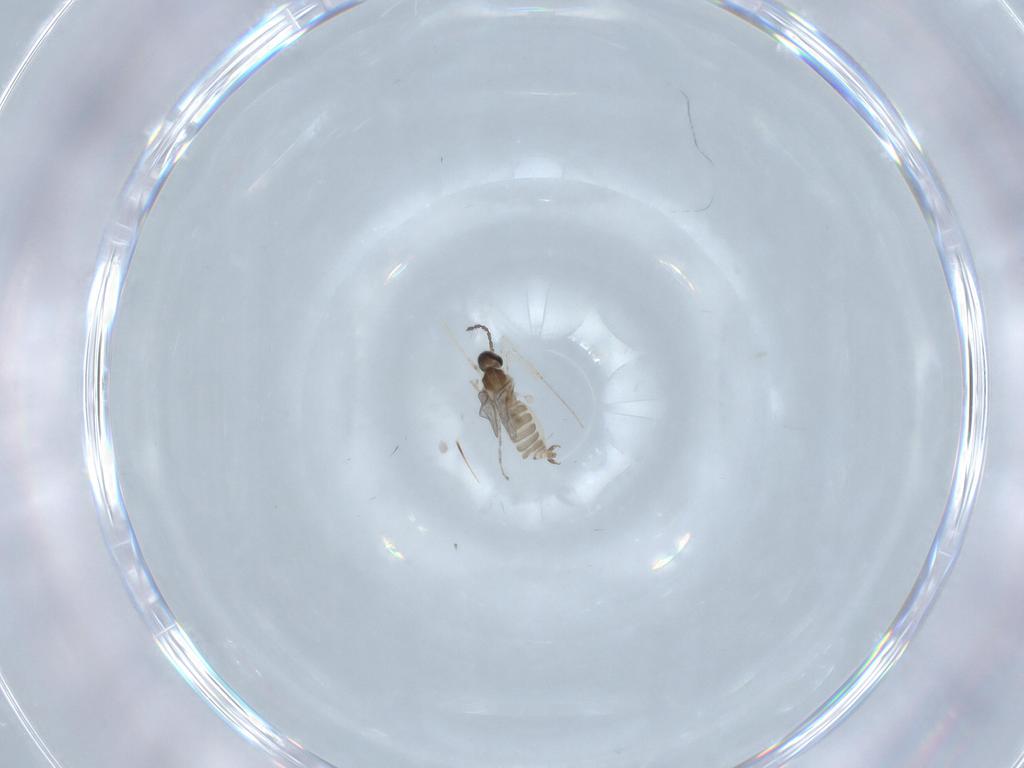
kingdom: Animalia
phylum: Arthropoda
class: Insecta
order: Diptera
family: Cecidomyiidae
